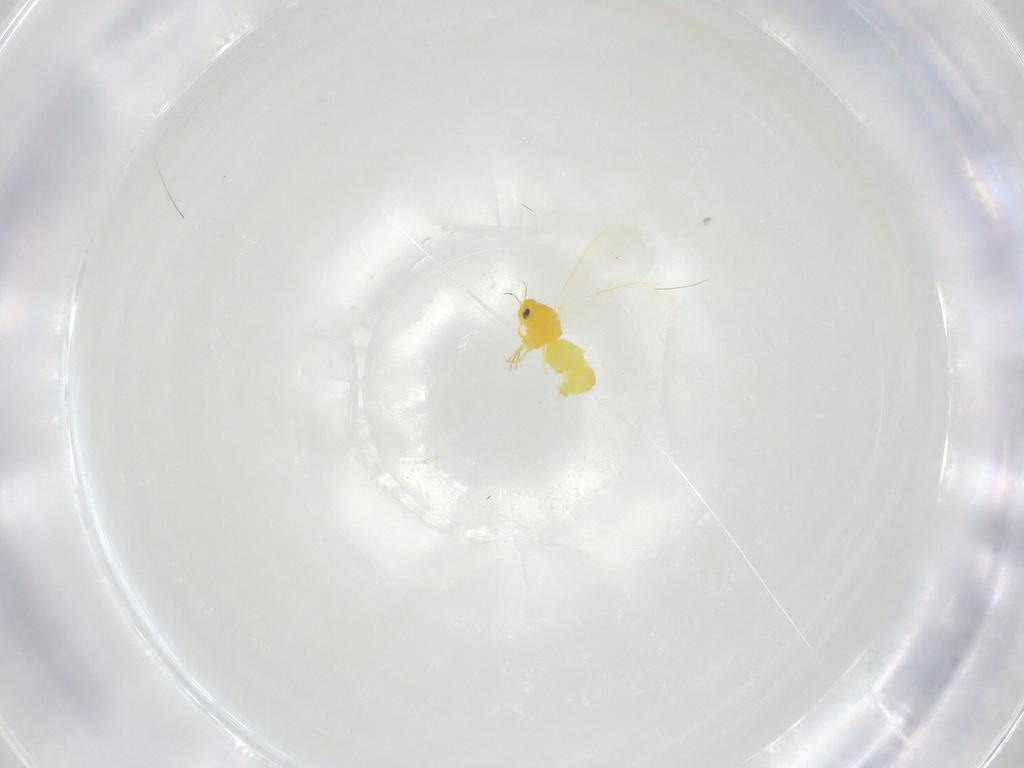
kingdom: Animalia
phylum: Arthropoda
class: Insecta
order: Hemiptera
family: Aleyrodidae
